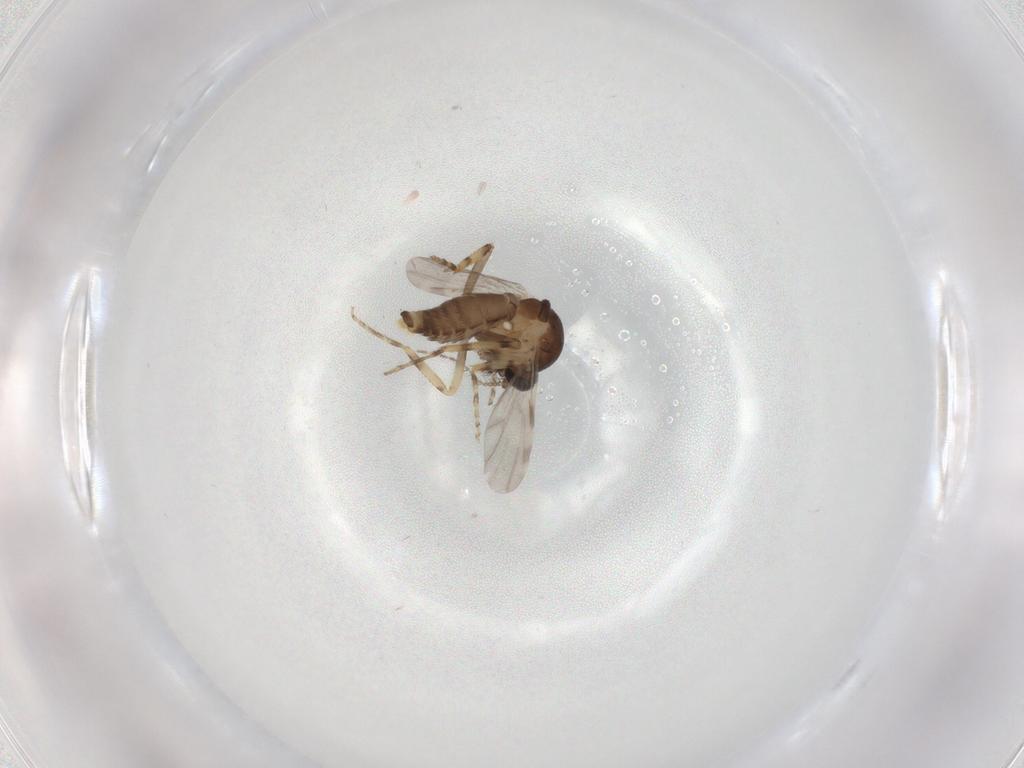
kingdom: Animalia
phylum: Arthropoda
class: Insecta
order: Diptera
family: Ceratopogonidae
